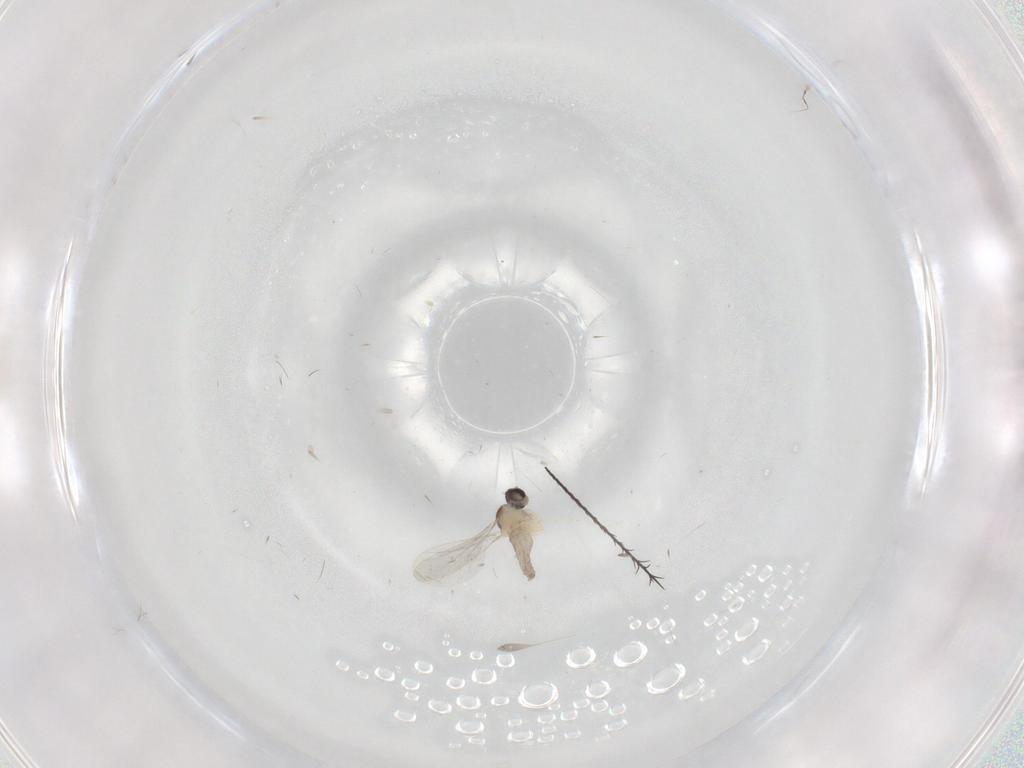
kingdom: Animalia
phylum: Arthropoda
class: Insecta
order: Diptera
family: Cecidomyiidae
